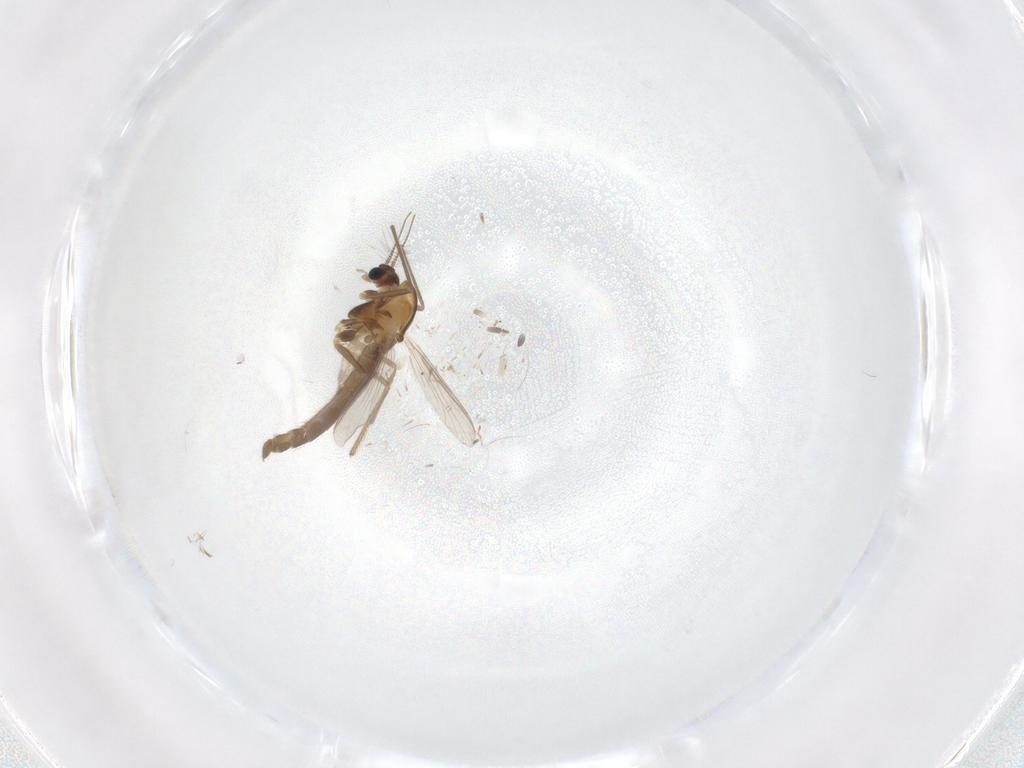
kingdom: Animalia
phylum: Arthropoda
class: Insecta
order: Diptera
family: Chironomidae
